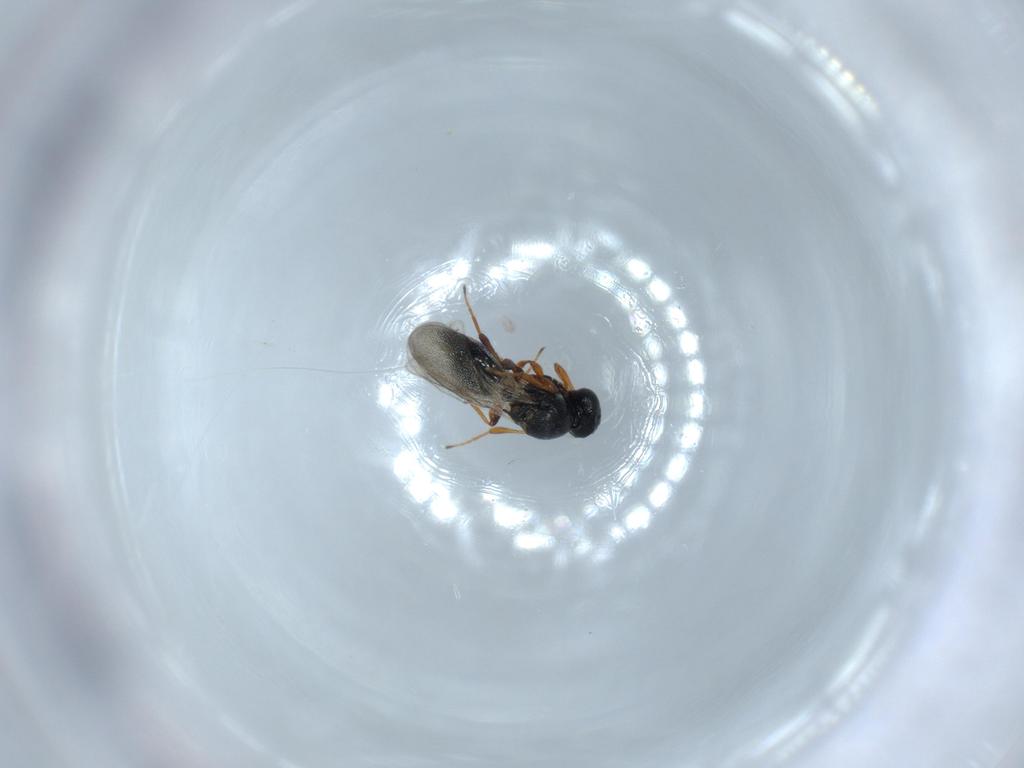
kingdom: Animalia
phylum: Arthropoda
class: Insecta
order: Hymenoptera
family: Platygastridae
